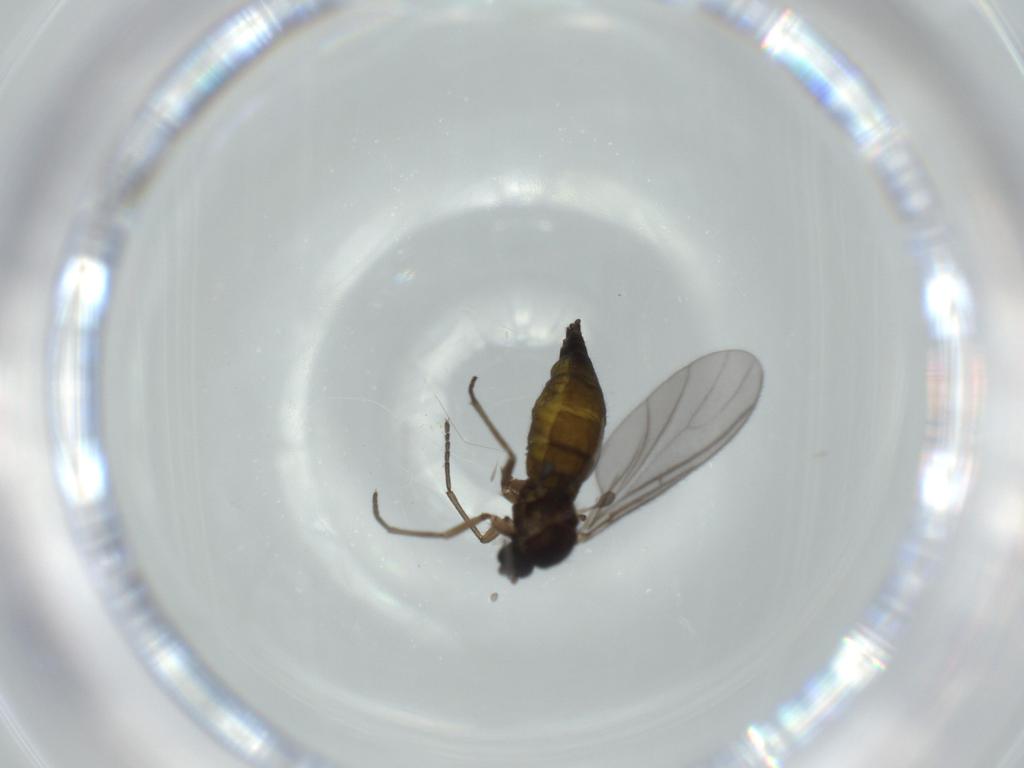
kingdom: Animalia
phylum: Arthropoda
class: Insecta
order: Diptera
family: Sciaridae
